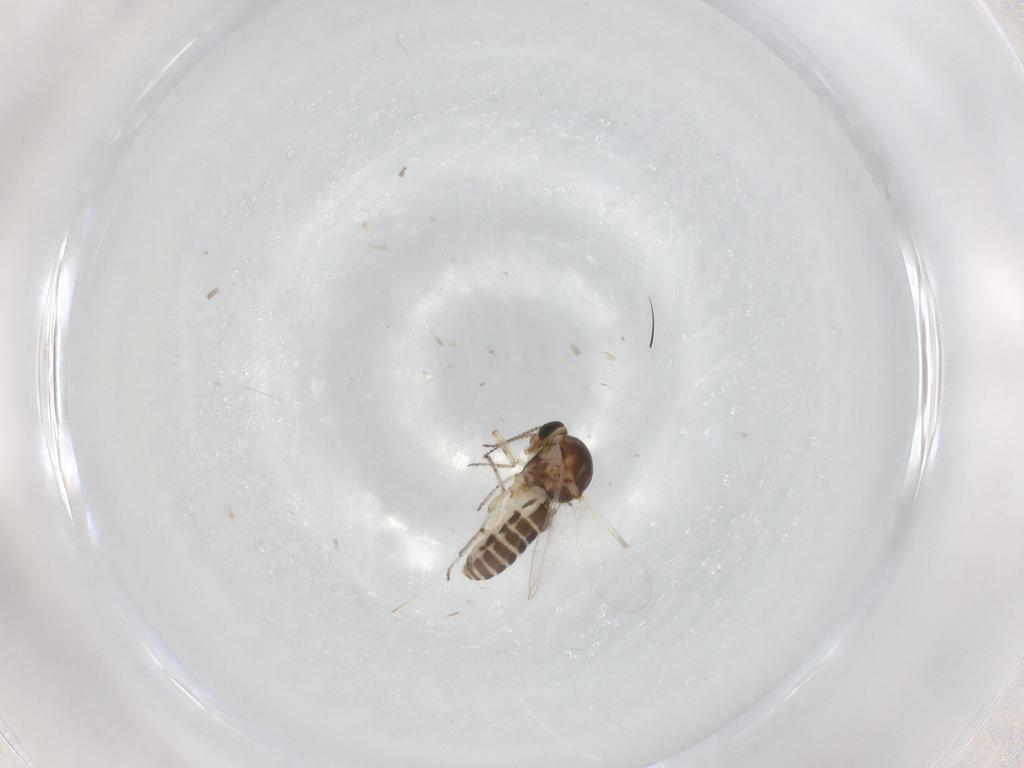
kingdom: Animalia
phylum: Arthropoda
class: Insecta
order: Diptera
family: Ceratopogonidae
